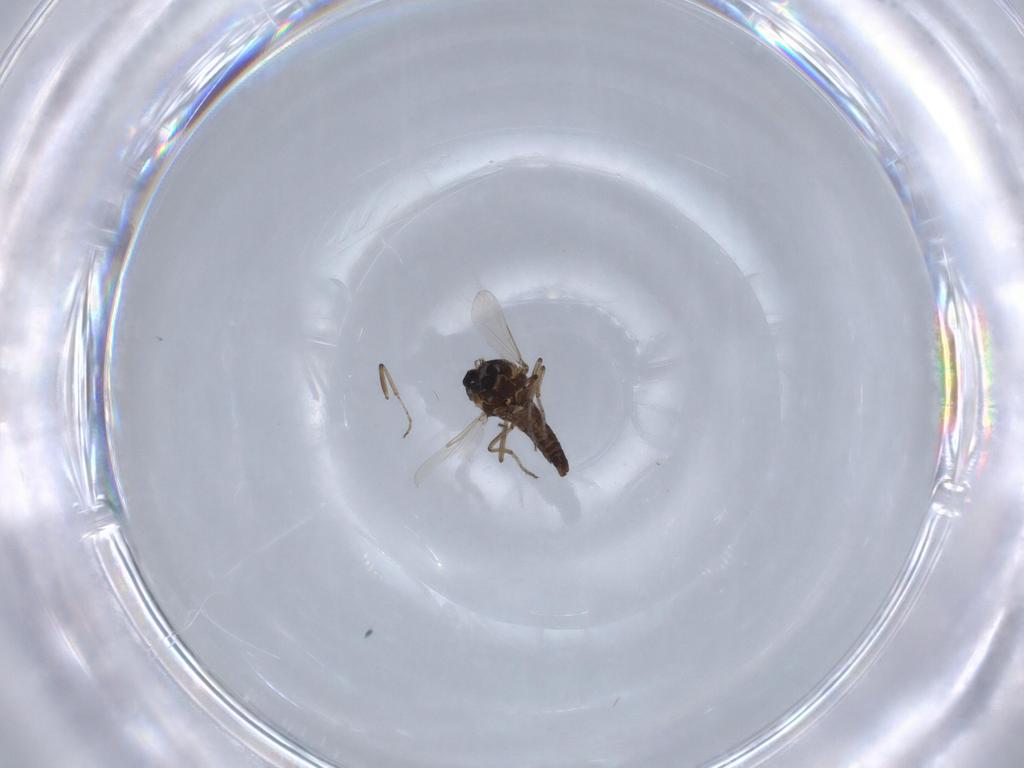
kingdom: Animalia
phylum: Arthropoda
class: Insecta
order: Diptera
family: Ceratopogonidae
